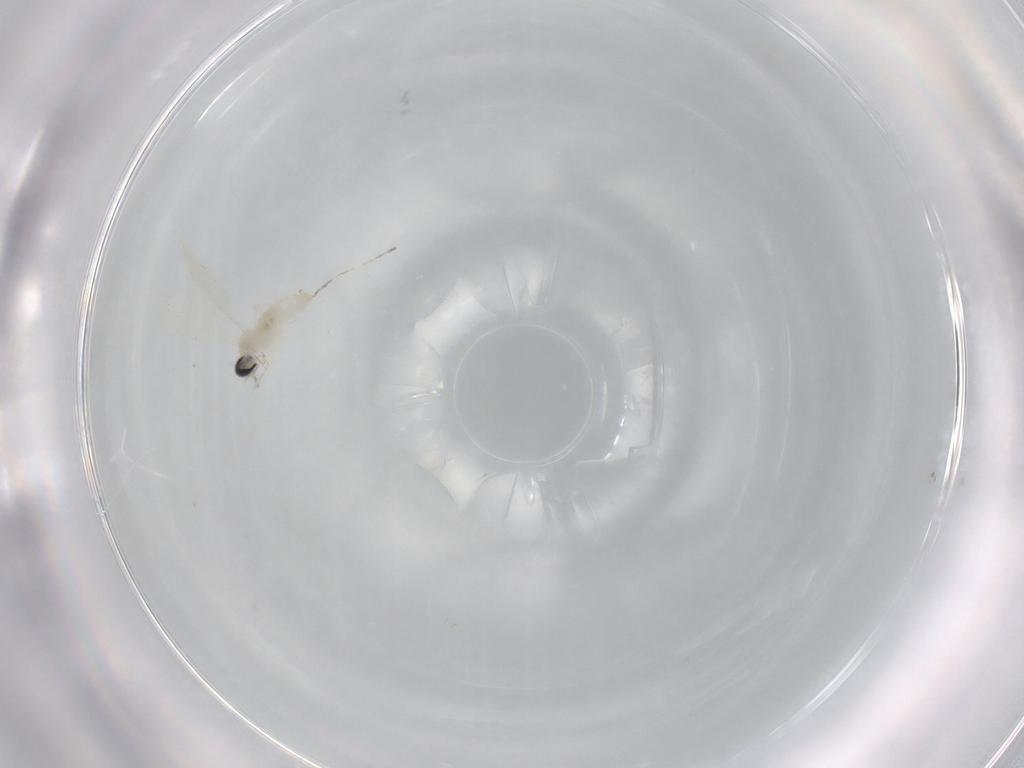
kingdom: Animalia
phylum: Arthropoda
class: Insecta
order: Diptera
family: Cecidomyiidae
